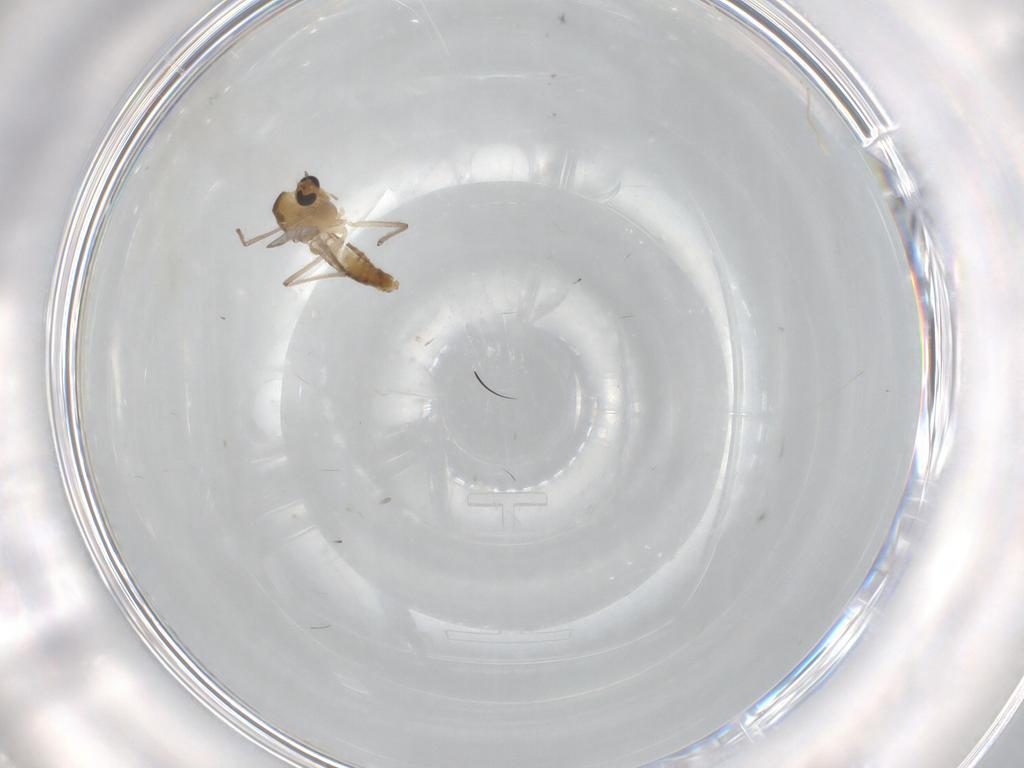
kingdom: Animalia
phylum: Arthropoda
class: Insecta
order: Diptera
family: Chironomidae
